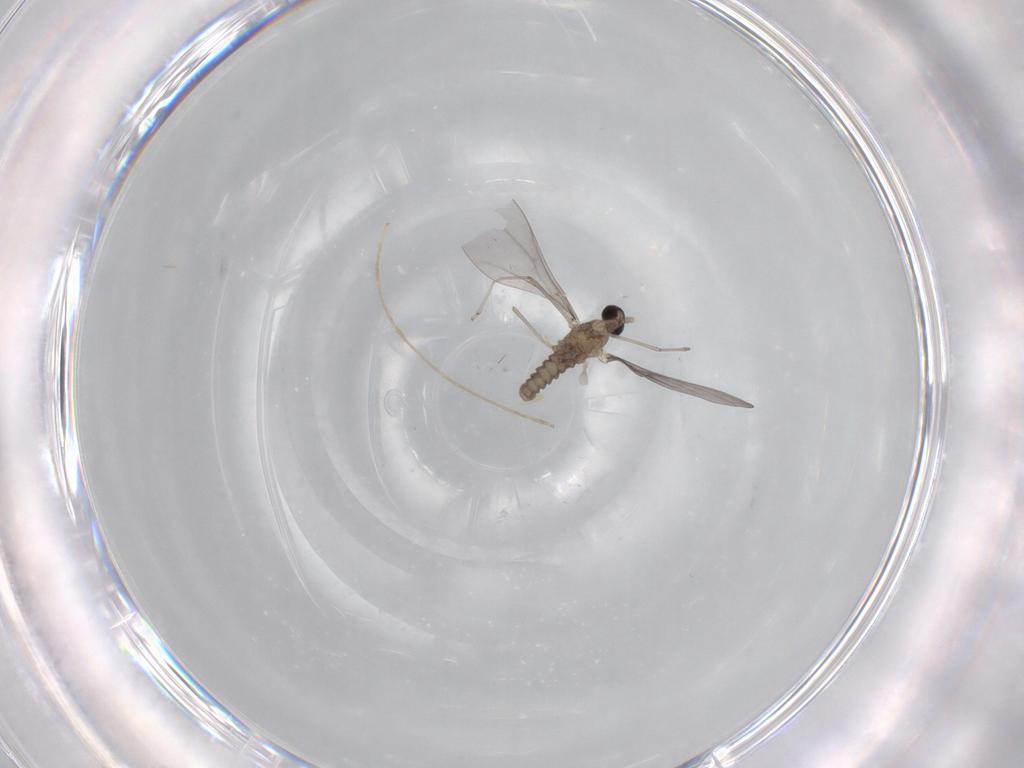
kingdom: Animalia
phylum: Arthropoda
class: Insecta
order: Diptera
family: Cecidomyiidae
